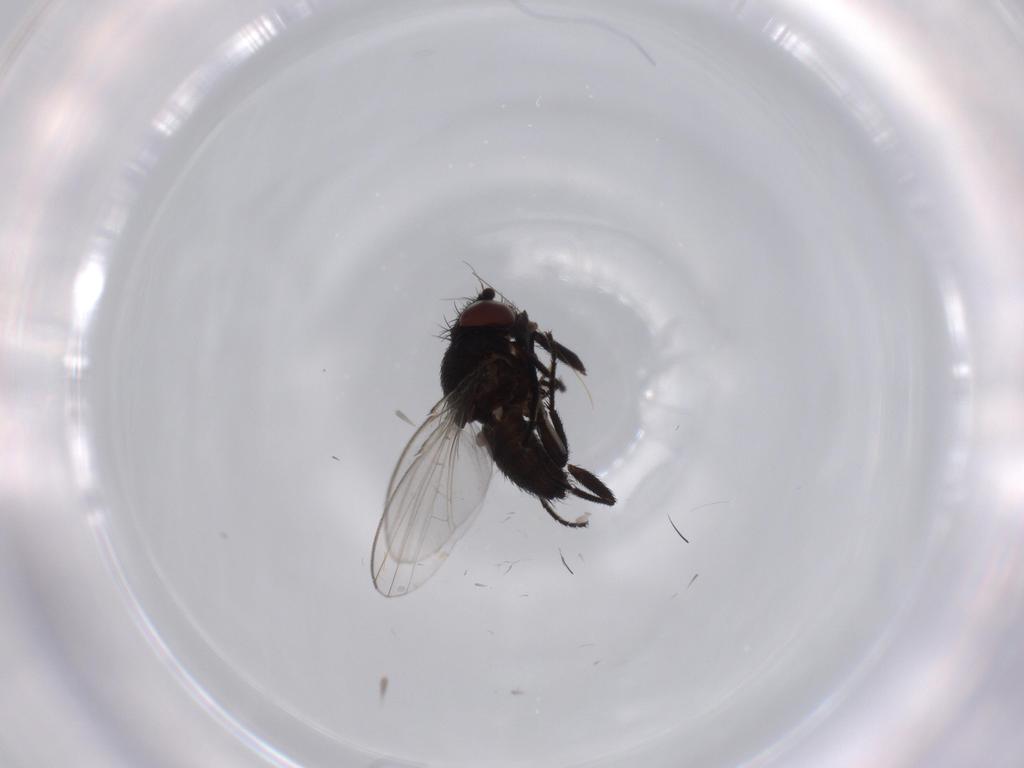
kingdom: Animalia
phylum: Arthropoda
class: Insecta
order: Diptera
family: Milichiidae
